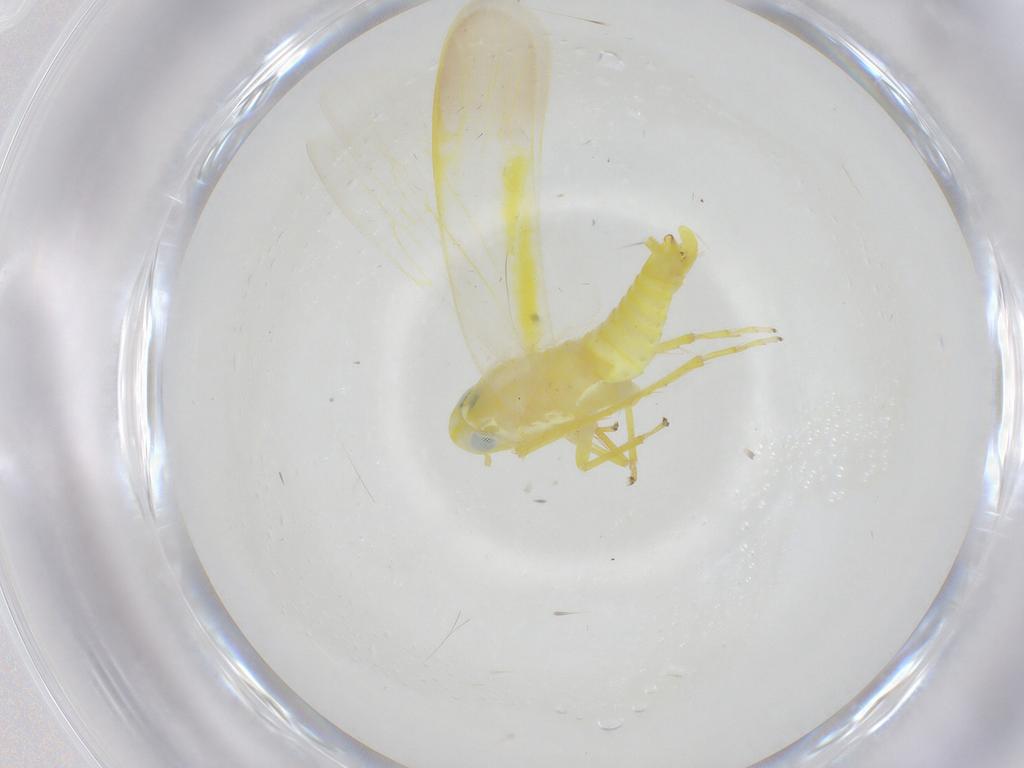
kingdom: Animalia
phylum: Arthropoda
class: Insecta
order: Hemiptera
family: Cicadellidae
